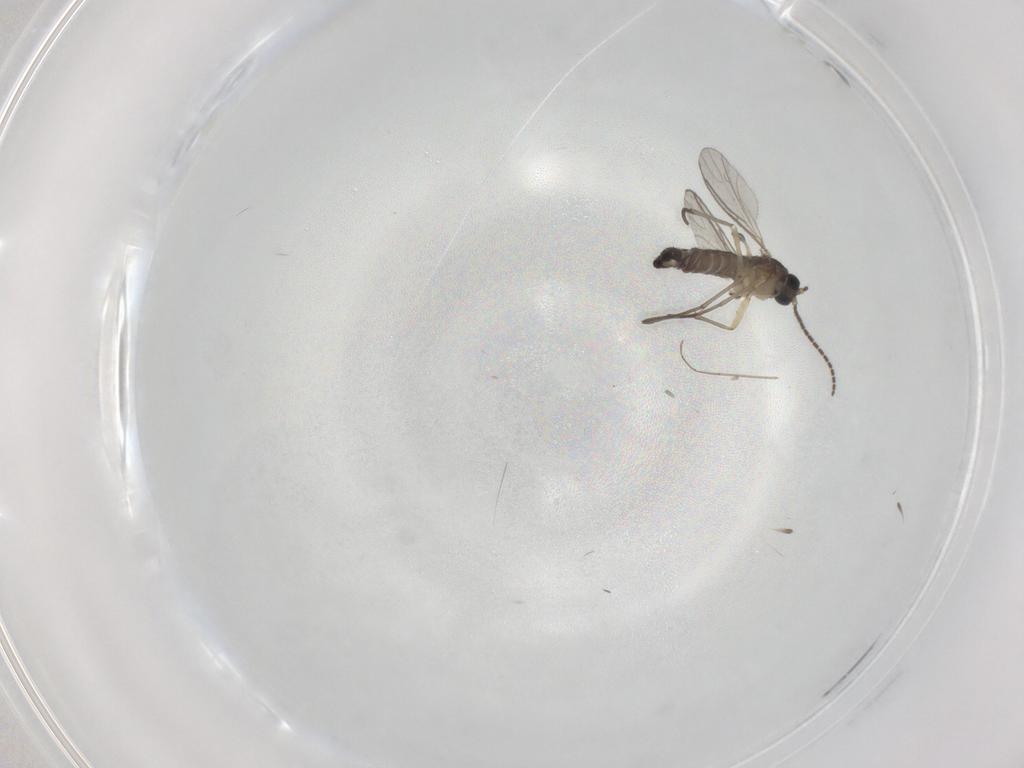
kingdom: Animalia
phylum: Arthropoda
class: Insecta
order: Diptera
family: Cecidomyiidae
